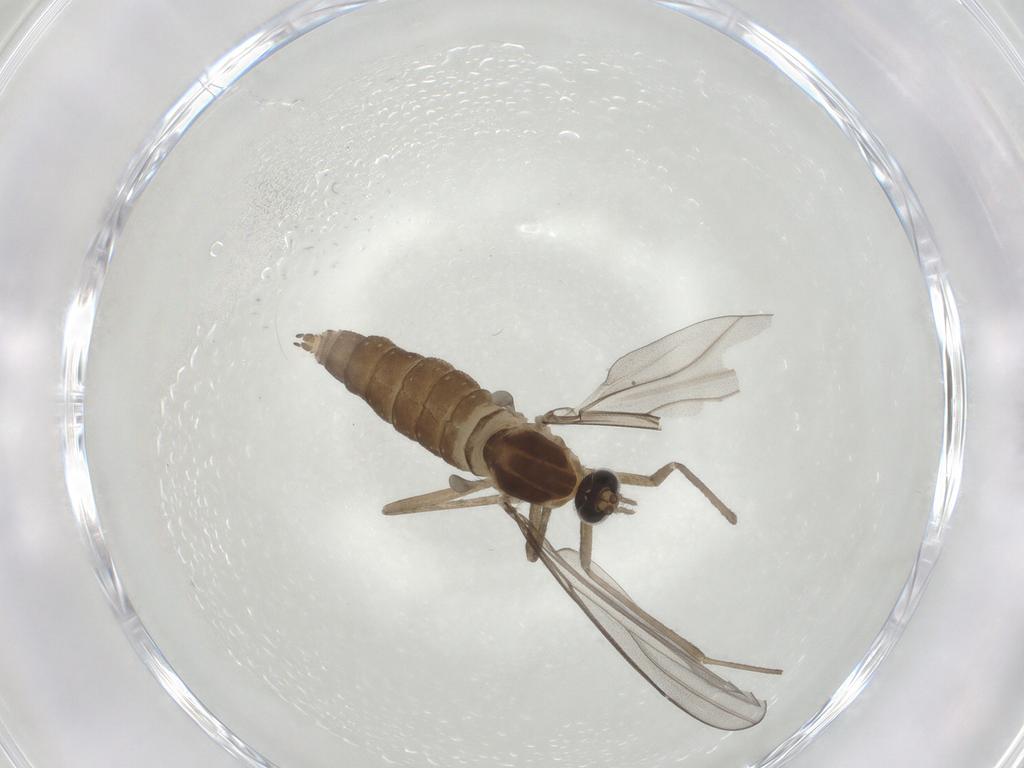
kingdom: Animalia
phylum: Arthropoda
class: Insecta
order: Diptera
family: Cecidomyiidae
